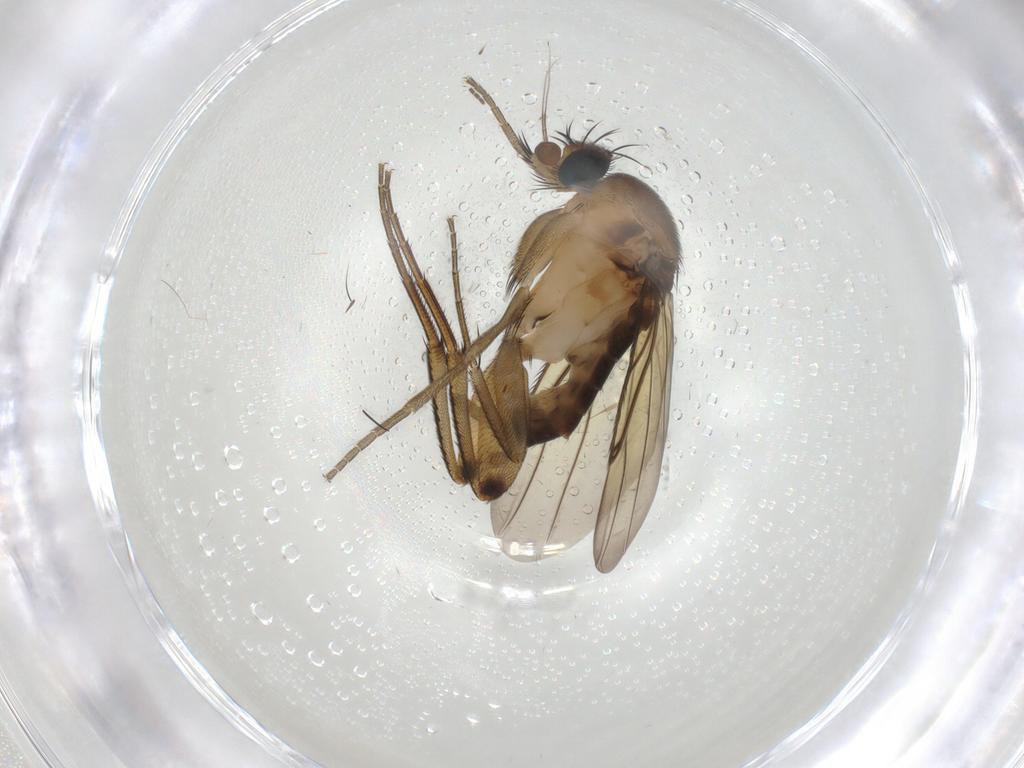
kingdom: Animalia
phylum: Arthropoda
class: Insecta
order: Diptera
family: Phoridae
